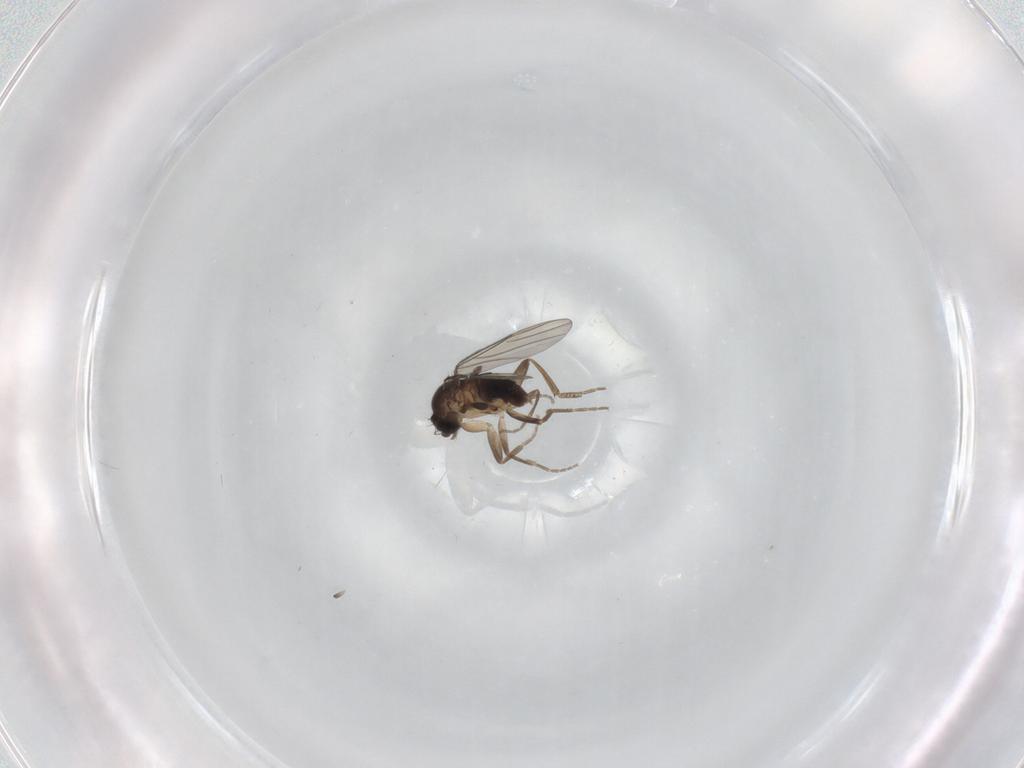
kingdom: Animalia
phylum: Arthropoda
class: Insecta
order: Diptera
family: Phoridae
